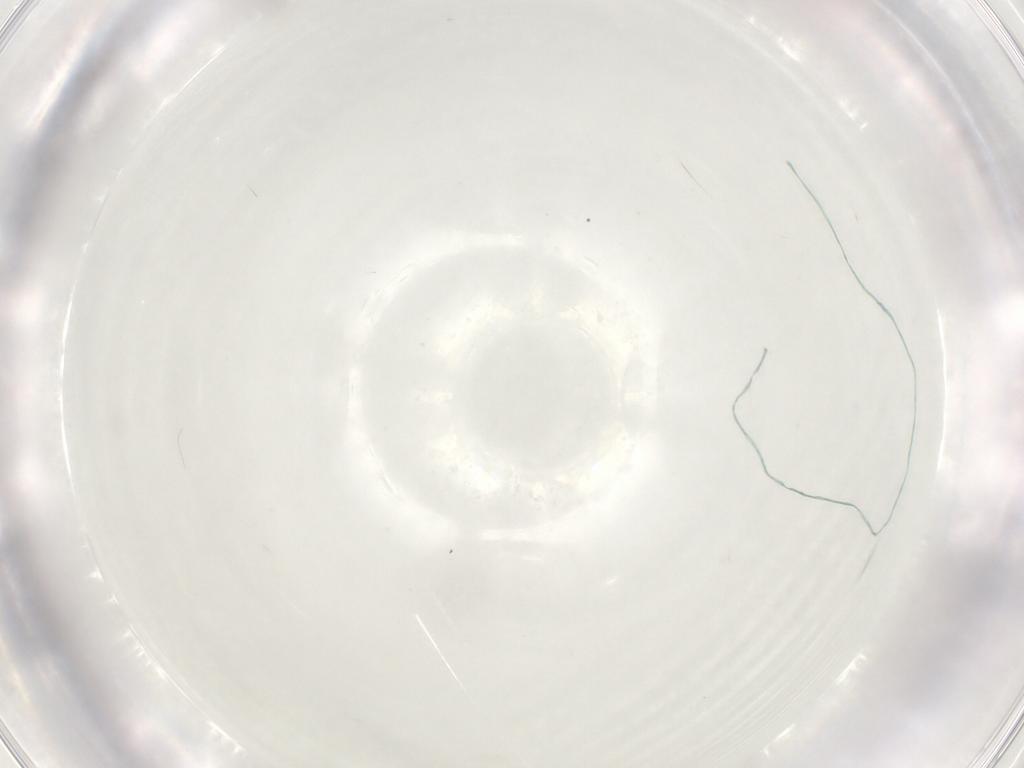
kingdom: Animalia
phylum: Arthropoda
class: Arachnida
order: Trombidiformes
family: Anystidae
